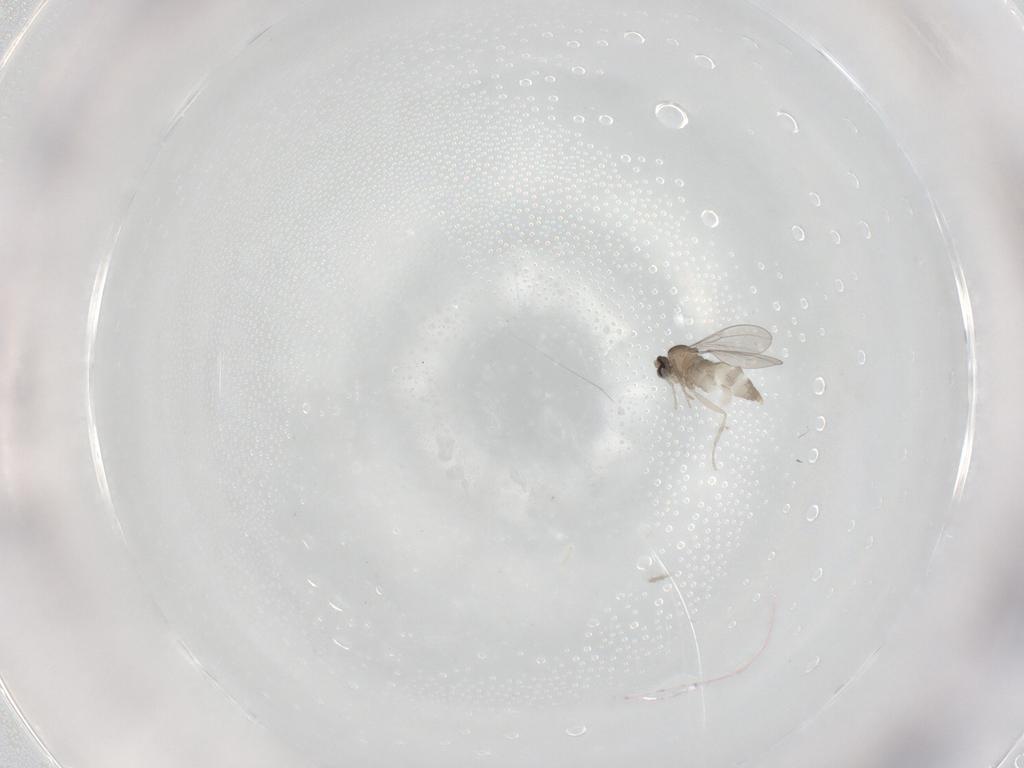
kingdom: Animalia
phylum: Arthropoda
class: Insecta
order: Diptera
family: Cecidomyiidae
